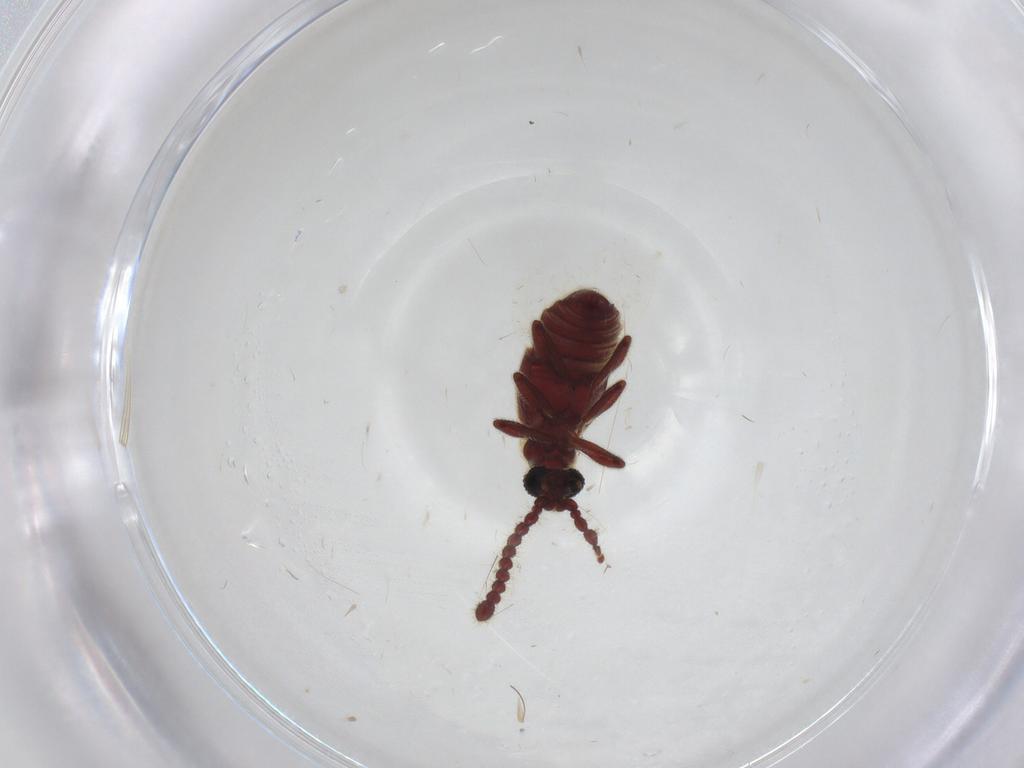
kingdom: Animalia
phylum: Arthropoda
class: Insecta
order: Coleoptera
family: Staphylinidae
